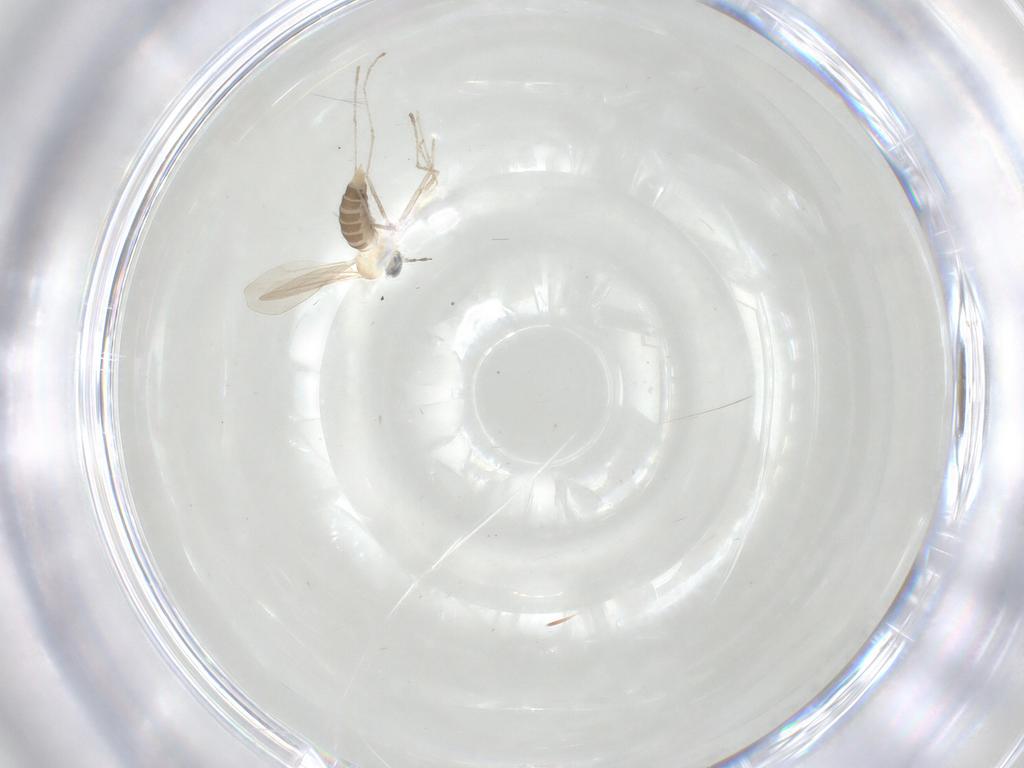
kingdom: Animalia
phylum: Arthropoda
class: Insecta
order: Diptera
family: Cecidomyiidae
